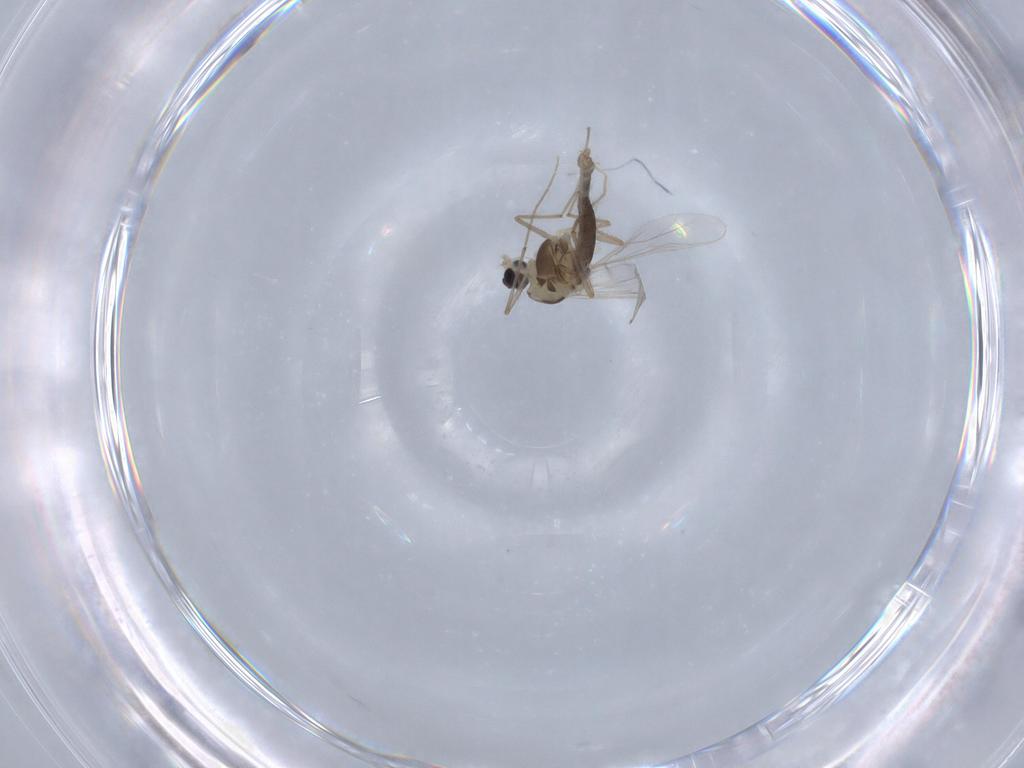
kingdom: Animalia
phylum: Arthropoda
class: Insecta
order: Diptera
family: Chironomidae
